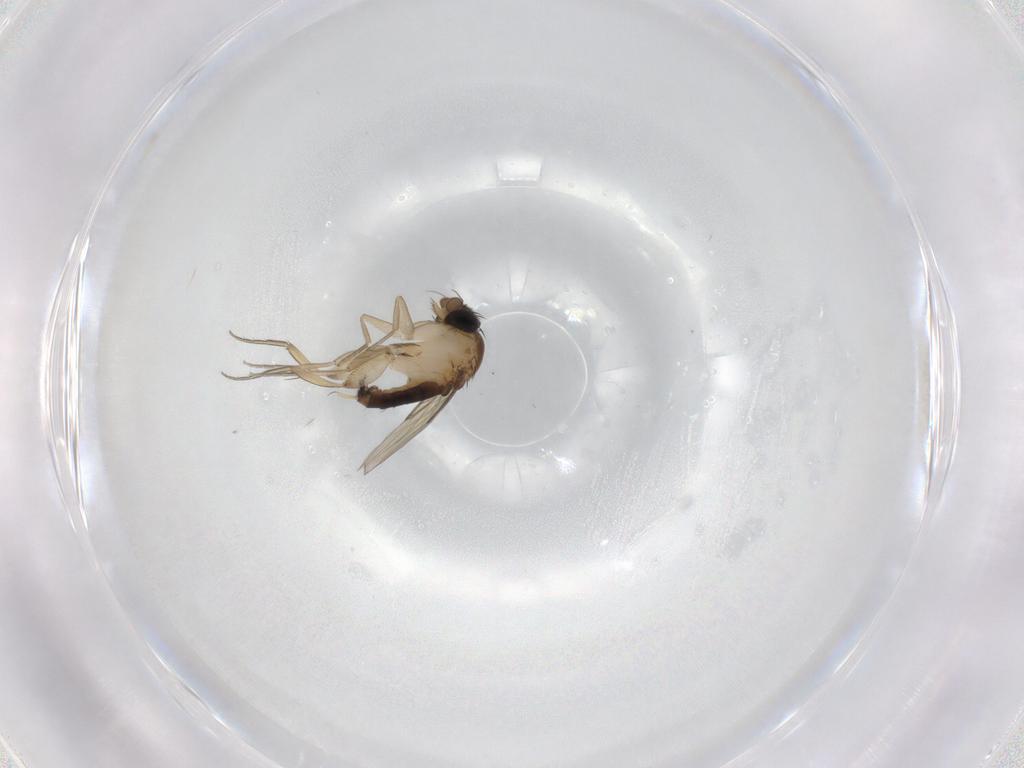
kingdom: Animalia
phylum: Arthropoda
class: Insecta
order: Diptera
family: Phoridae
